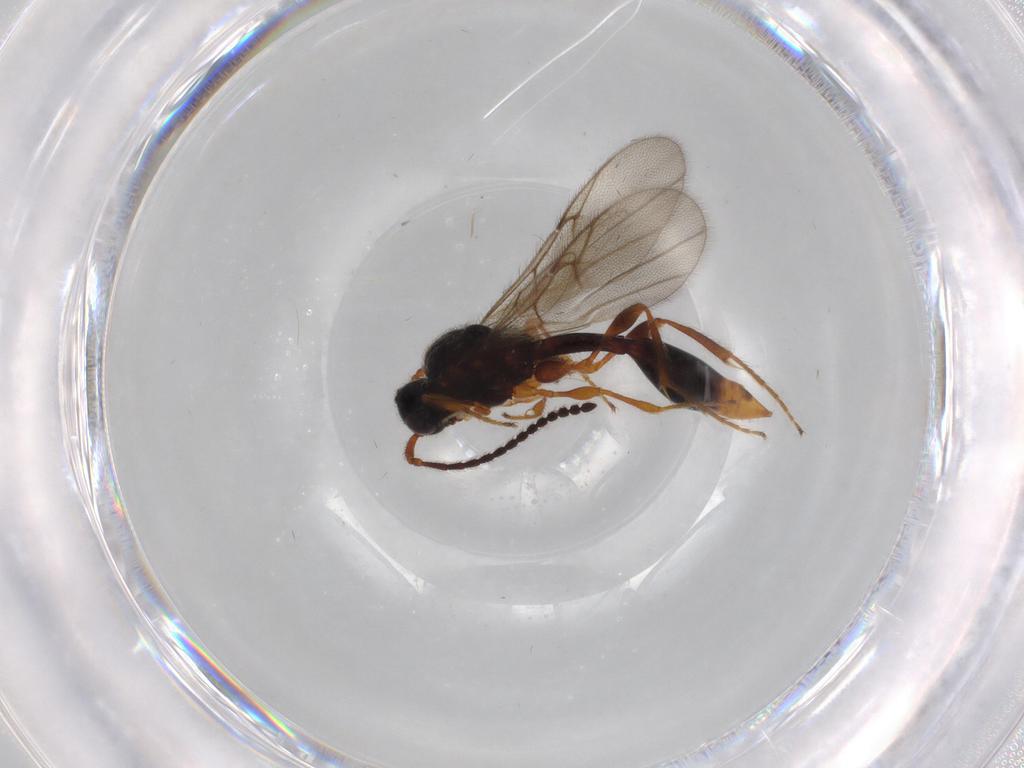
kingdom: Animalia
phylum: Arthropoda
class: Insecta
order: Hymenoptera
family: Diapriidae
